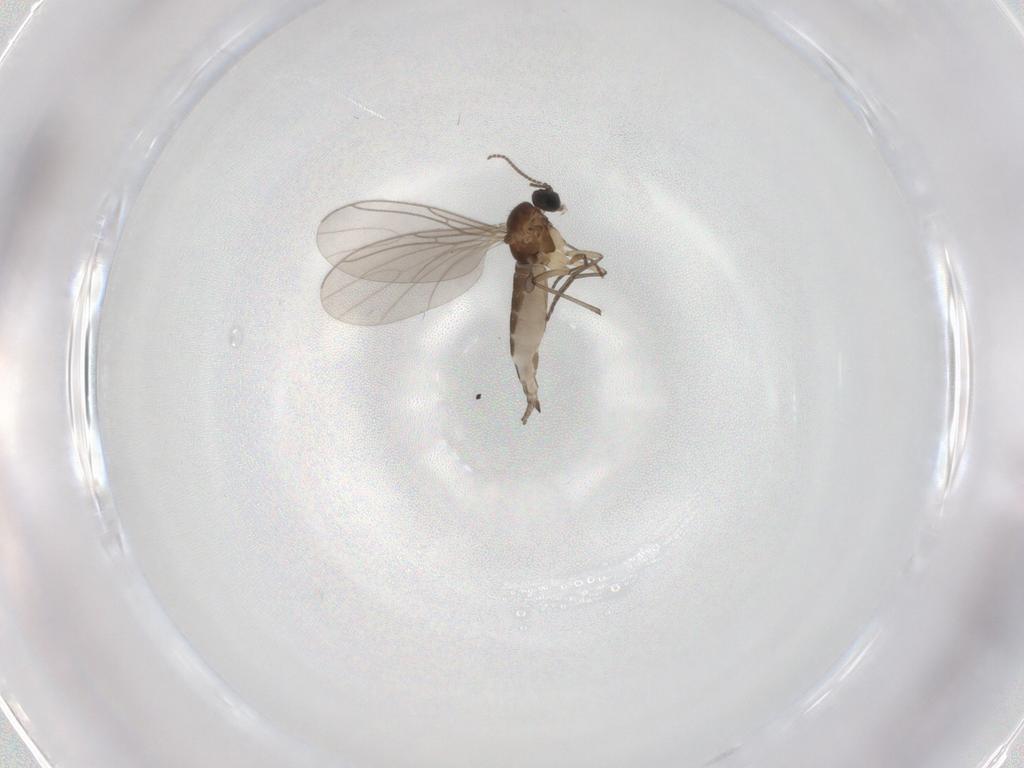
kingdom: Animalia
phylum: Arthropoda
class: Insecta
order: Diptera
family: Sciaridae
